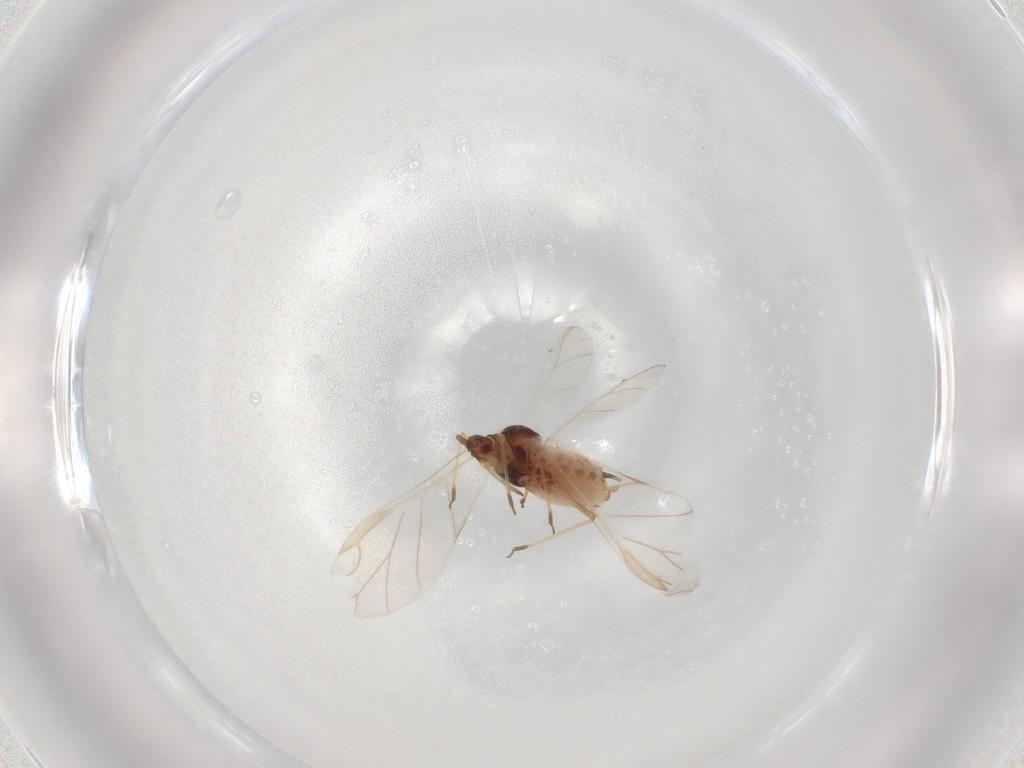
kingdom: Animalia
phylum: Arthropoda
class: Insecta
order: Hemiptera
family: Aphididae
